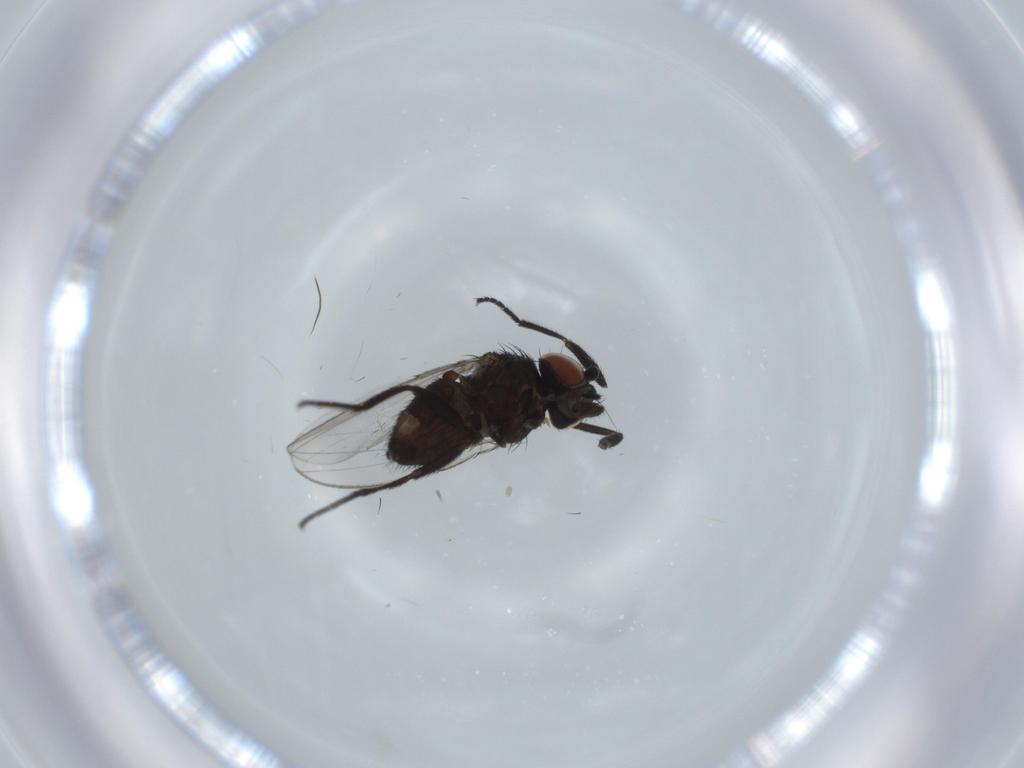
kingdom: Animalia
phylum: Arthropoda
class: Insecta
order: Diptera
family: Milichiidae
